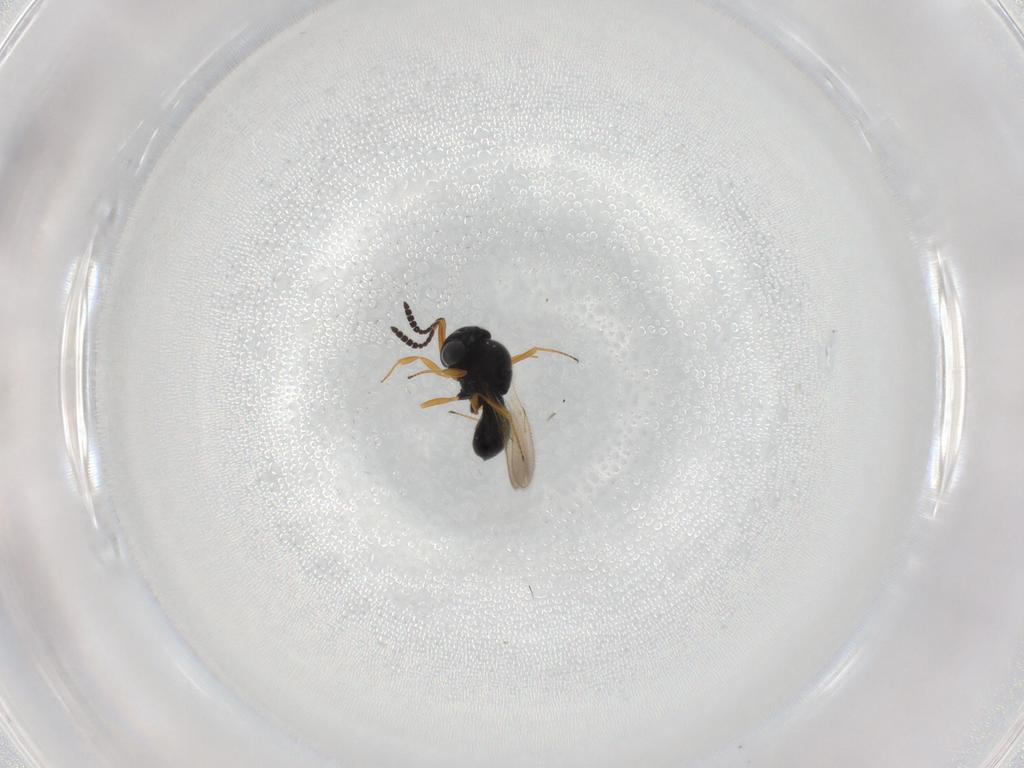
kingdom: Animalia
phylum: Arthropoda
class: Insecta
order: Hymenoptera
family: Scelionidae
